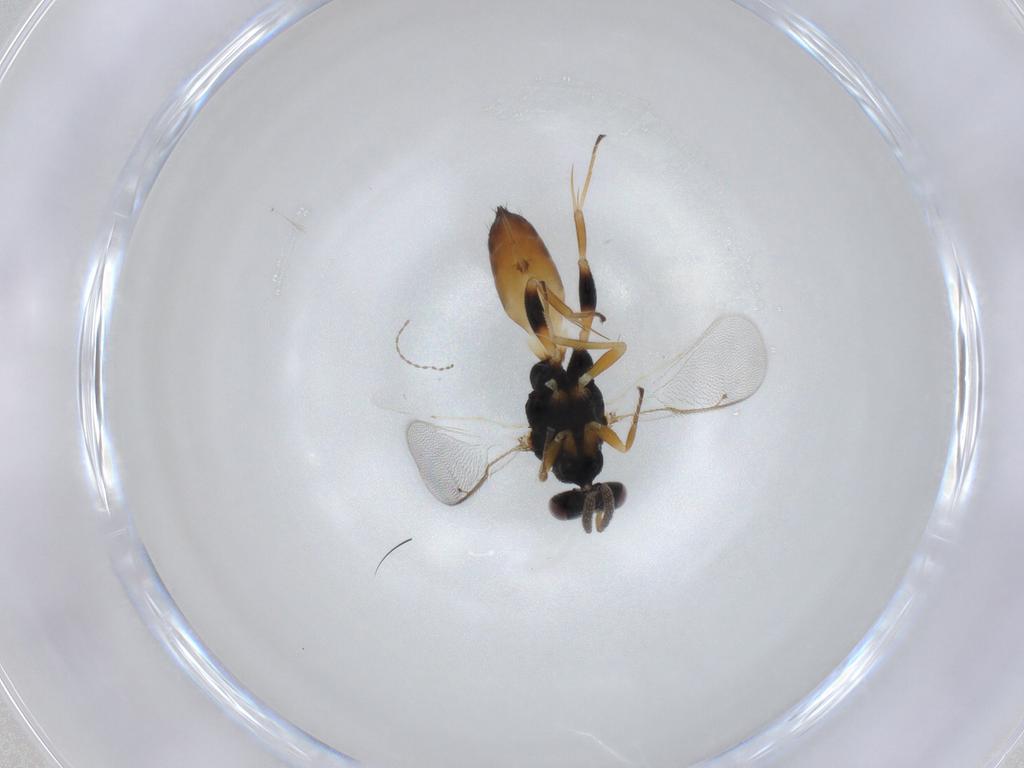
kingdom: Animalia
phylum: Arthropoda
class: Insecta
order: Hymenoptera
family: Eulophidae
